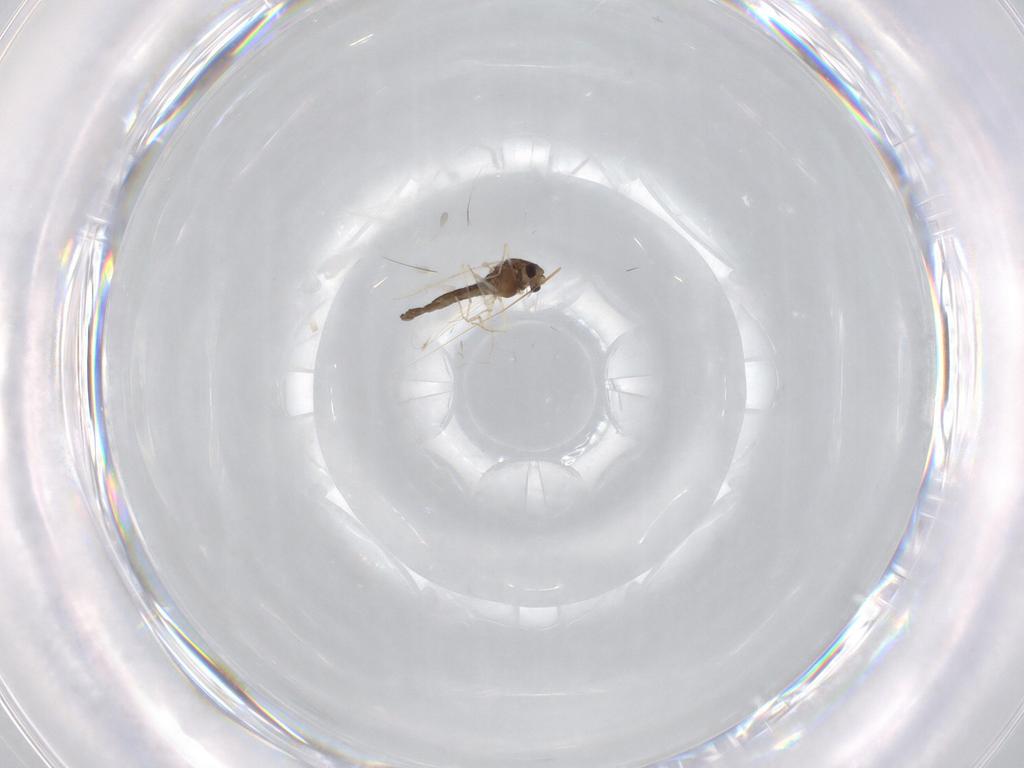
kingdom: Animalia
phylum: Arthropoda
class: Insecta
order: Diptera
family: Chironomidae
